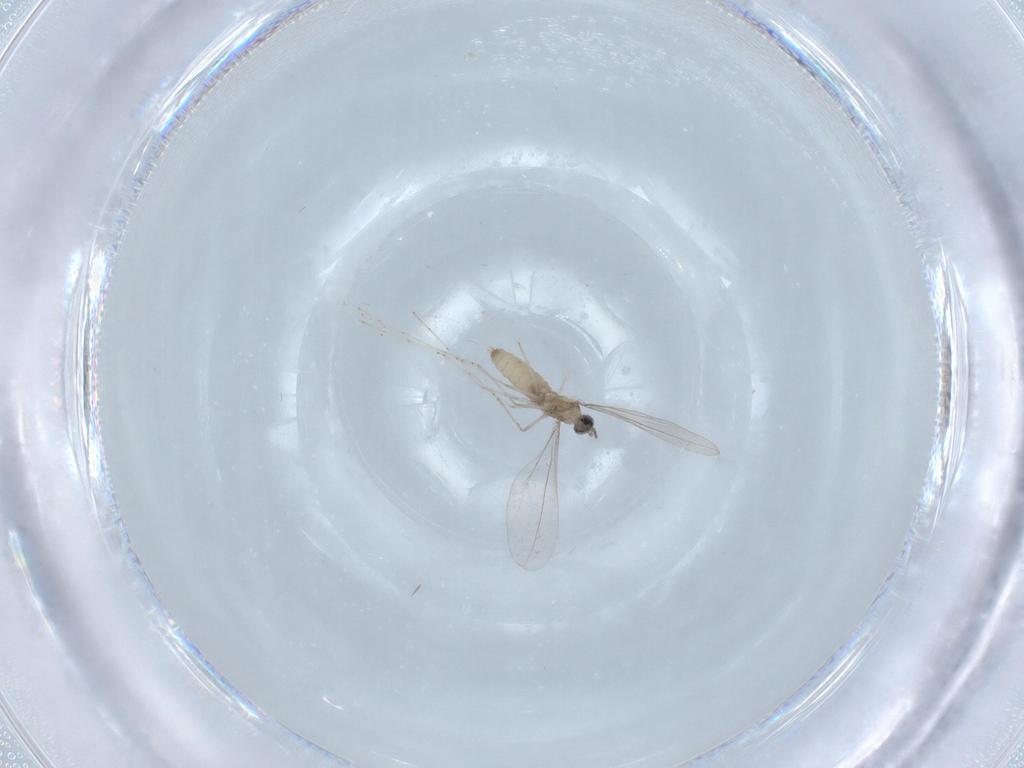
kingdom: Animalia
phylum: Arthropoda
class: Insecta
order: Diptera
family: Cecidomyiidae
